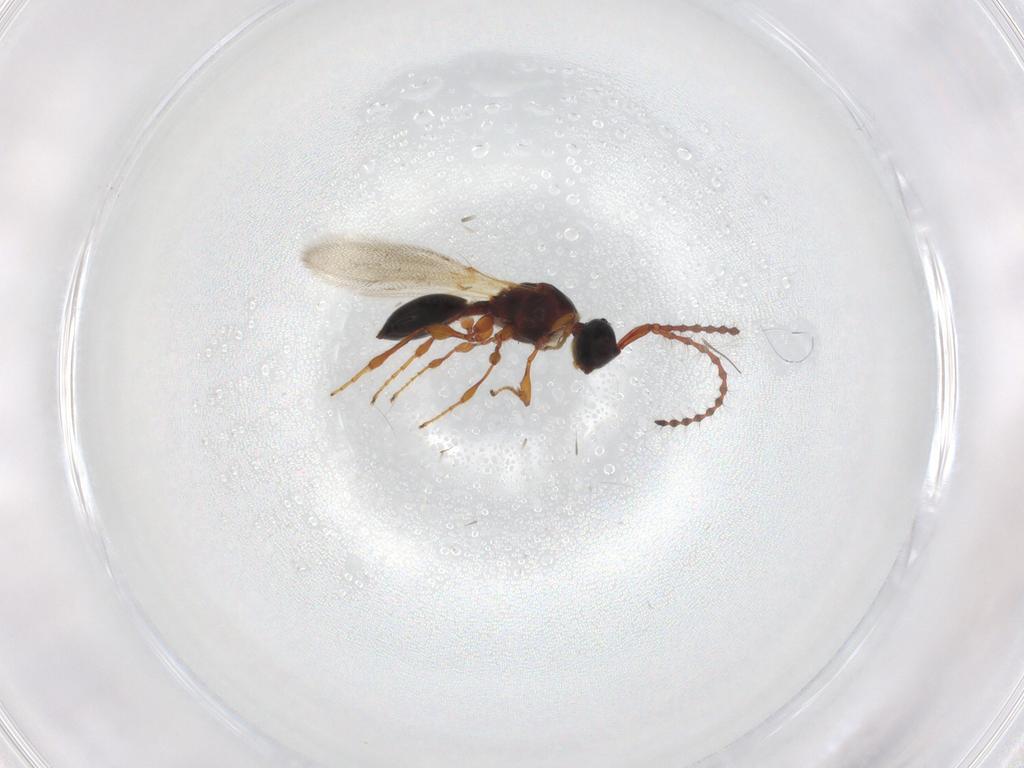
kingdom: Animalia
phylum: Arthropoda
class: Insecta
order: Hymenoptera
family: Diapriidae
